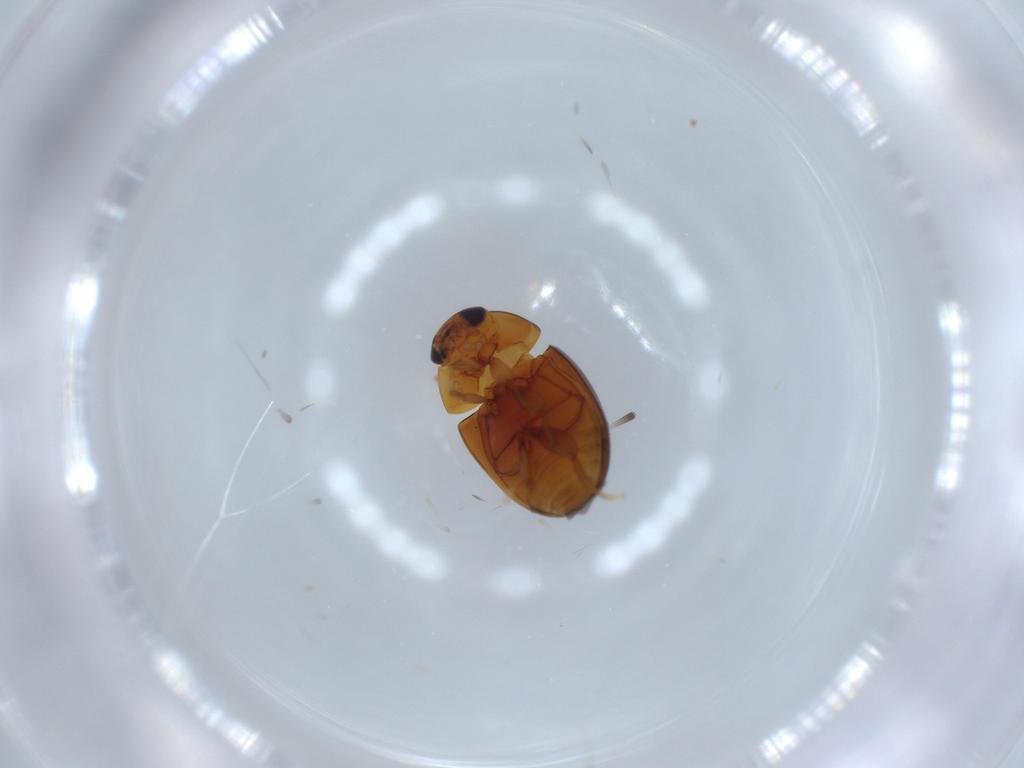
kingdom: Animalia
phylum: Arthropoda
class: Insecta
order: Coleoptera
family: Phalacridae
